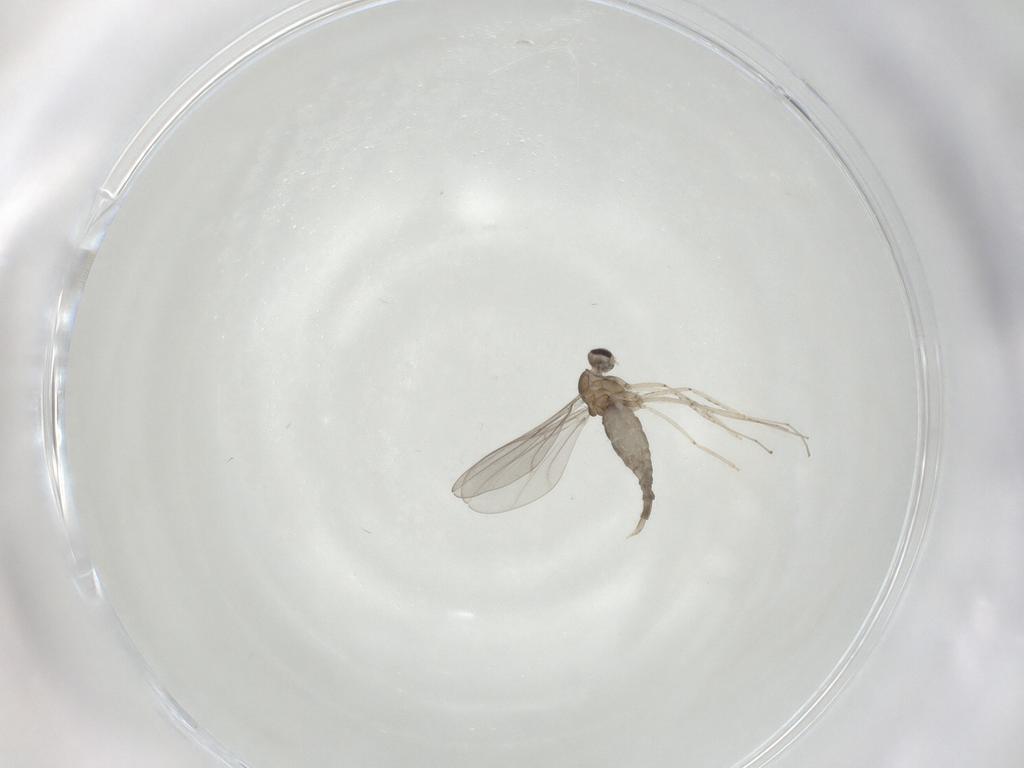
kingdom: Animalia
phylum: Arthropoda
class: Insecta
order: Diptera
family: Cecidomyiidae
